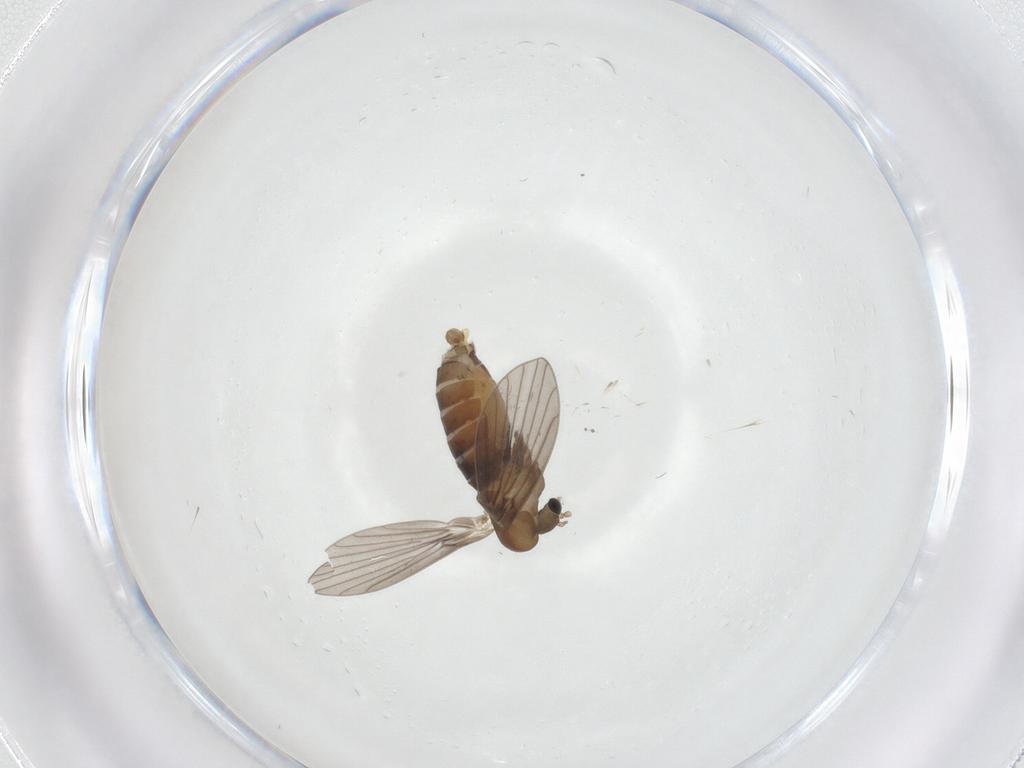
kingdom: Animalia
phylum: Arthropoda
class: Insecta
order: Diptera
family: Psychodidae
